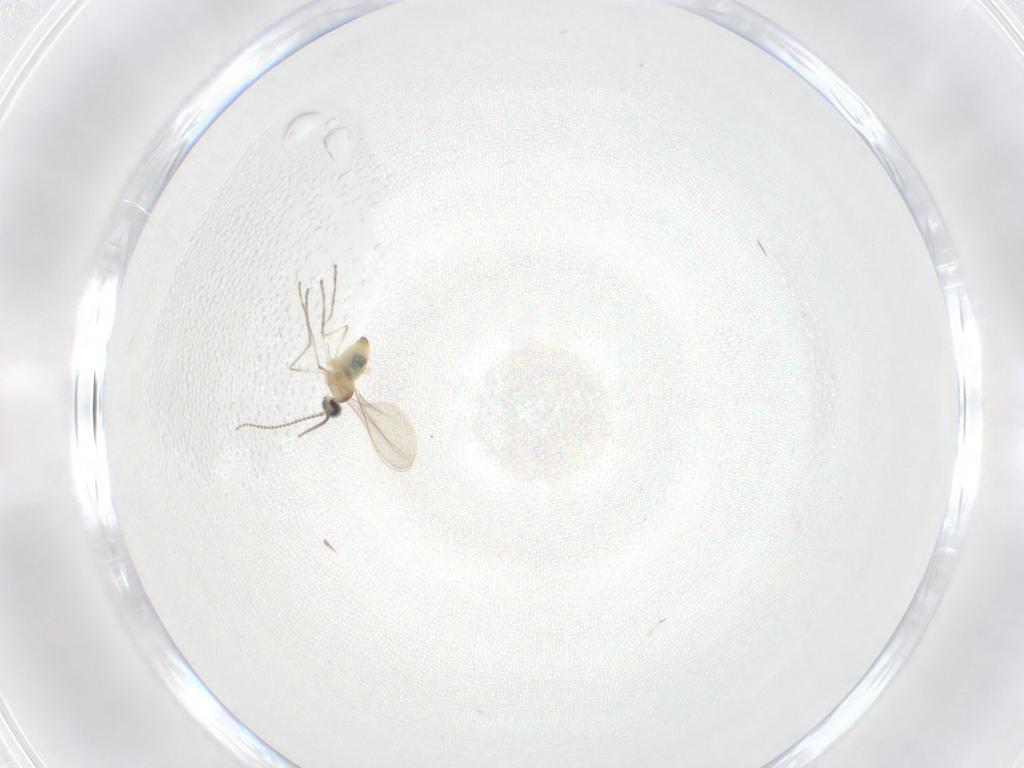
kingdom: Animalia
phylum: Arthropoda
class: Insecta
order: Diptera
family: Cecidomyiidae
